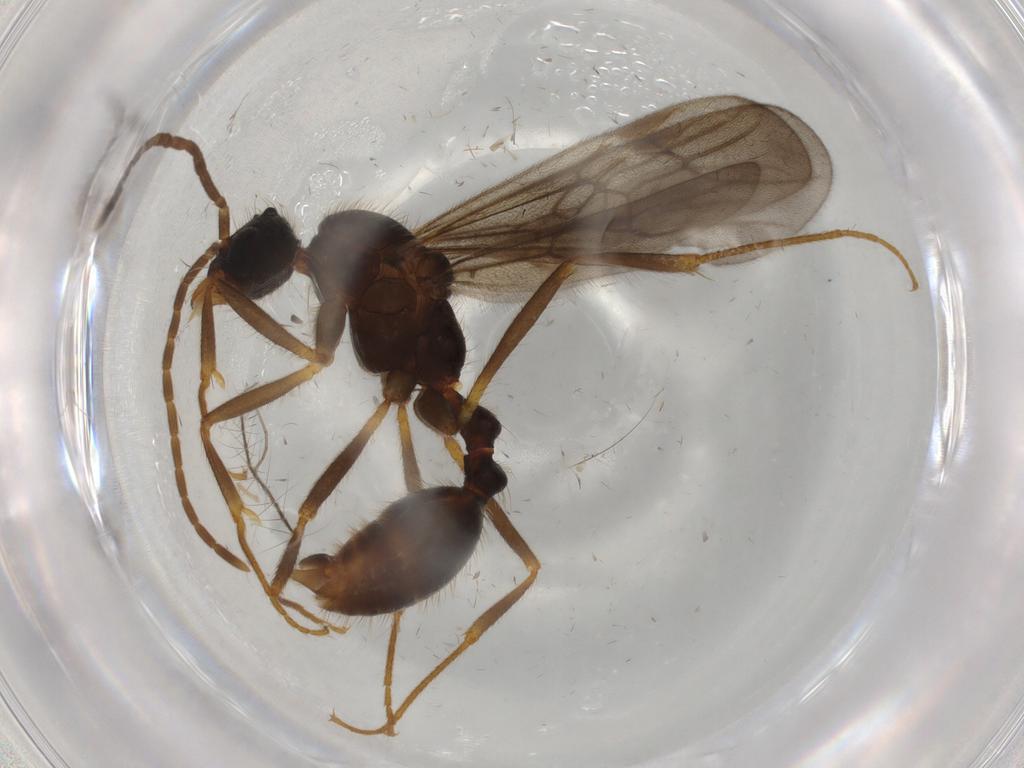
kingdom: Animalia
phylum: Arthropoda
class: Insecta
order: Hymenoptera
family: Formicidae
